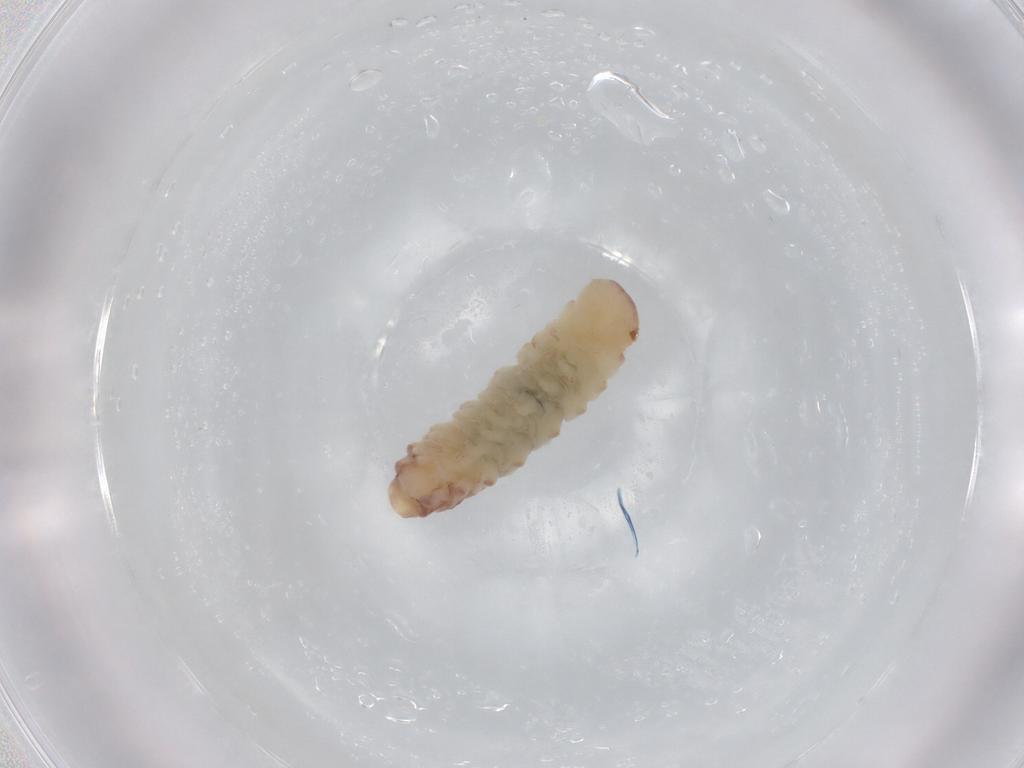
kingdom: Animalia
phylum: Arthropoda
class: Diplopoda
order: Polyxenida
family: Polyxenidae
